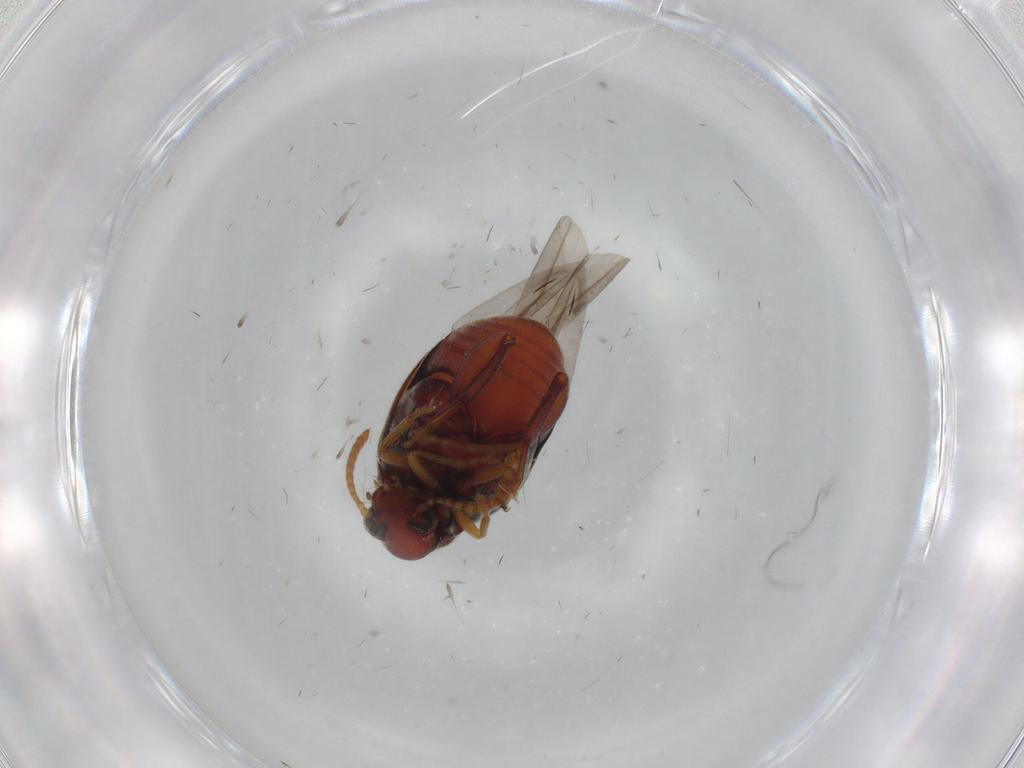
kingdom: Animalia
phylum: Arthropoda
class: Insecta
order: Coleoptera
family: Chrysomelidae
